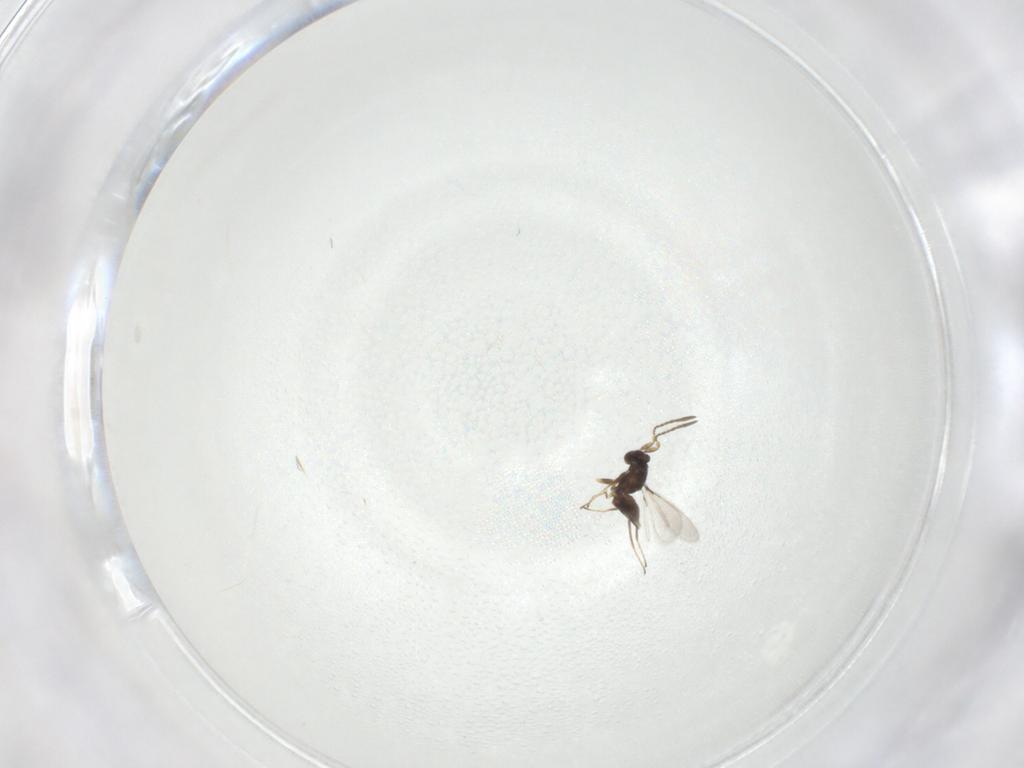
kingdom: Animalia
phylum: Arthropoda
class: Insecta
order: Hymenoptera
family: Mymaridae
